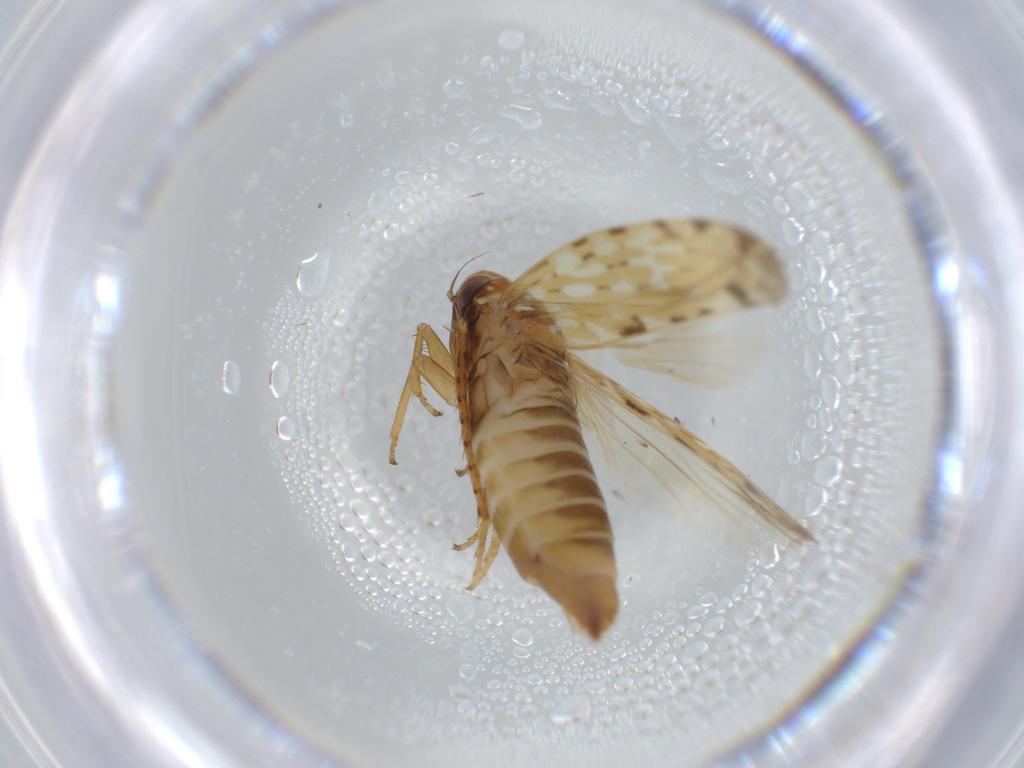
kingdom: Animalia
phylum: Arthropoda
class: Insecta
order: Hemiptera
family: Cicadellidae
